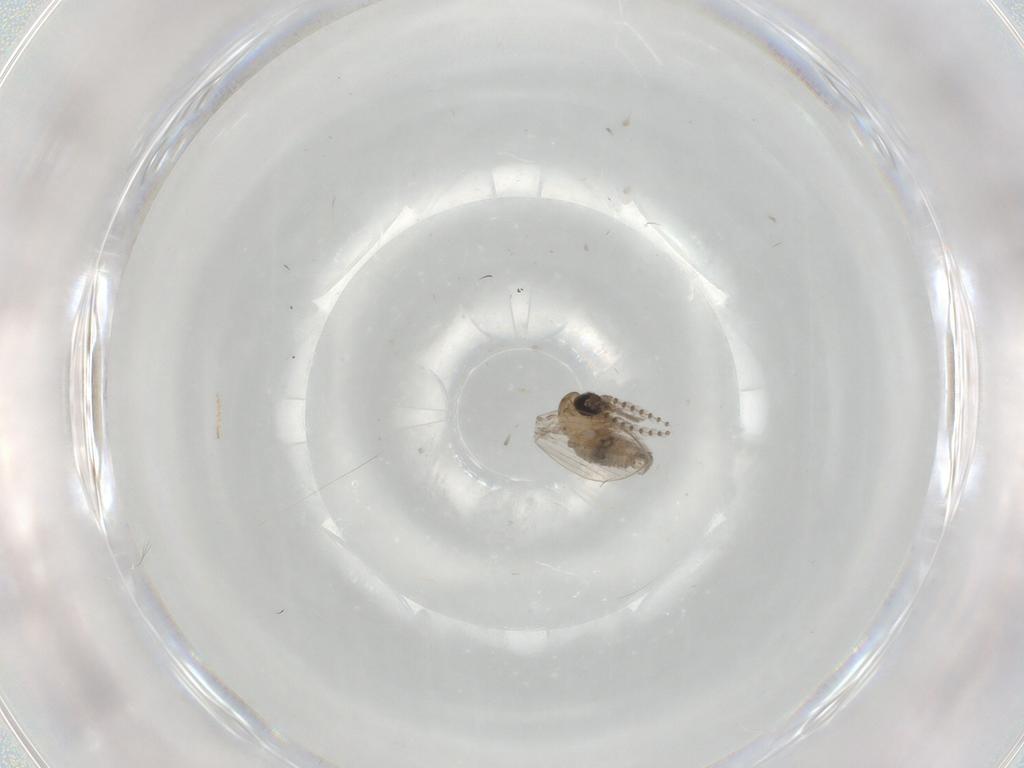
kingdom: Animalia
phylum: Arthropoda
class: Insecta
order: Diptera
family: Psychodidae
